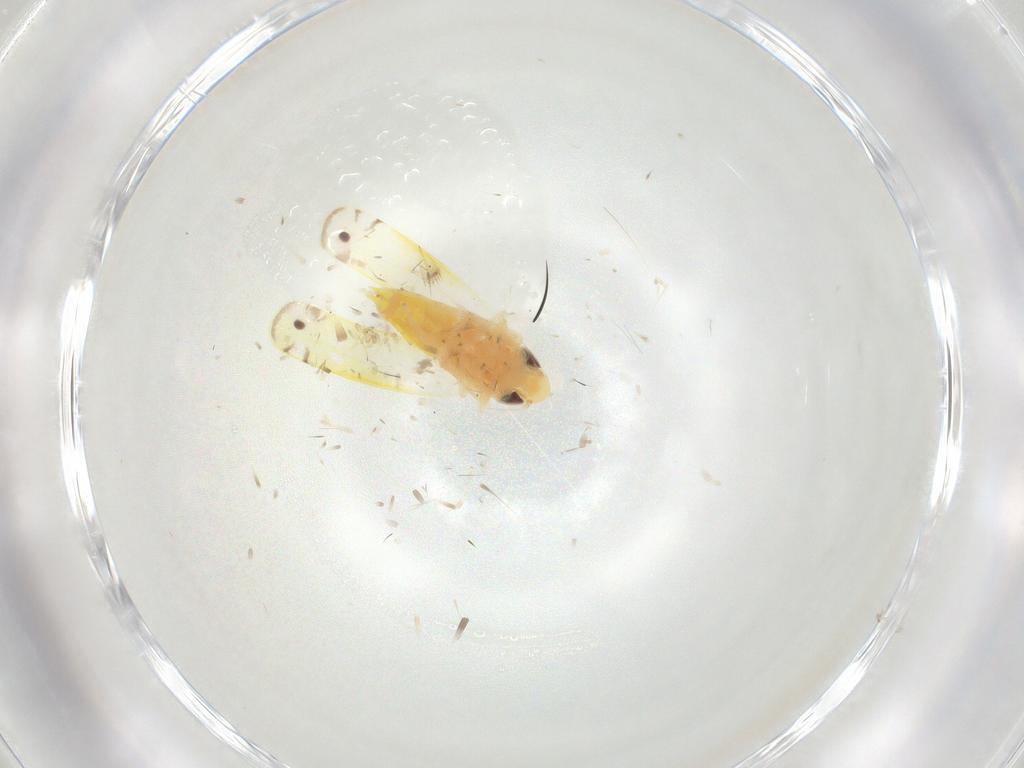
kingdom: Animalia
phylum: Arthropoda
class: Insecta
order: Hemiptera
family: Cicadellidae
